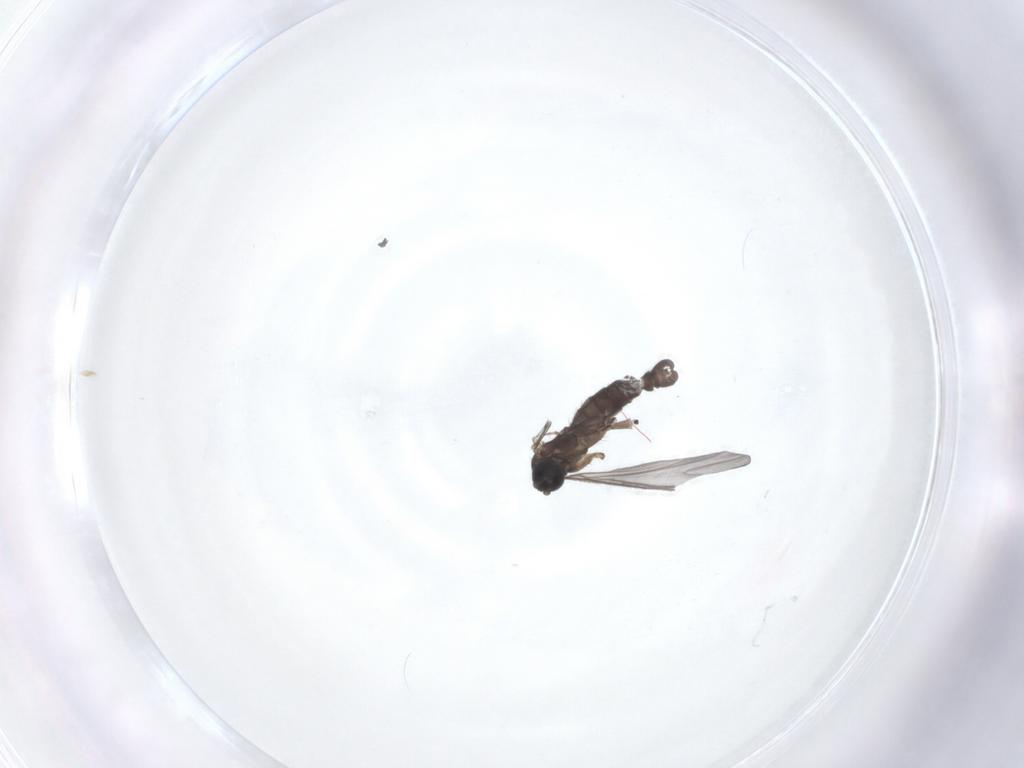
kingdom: Animalia
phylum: Arthropoda
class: Insecta
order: Diptera
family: Sciaridae
